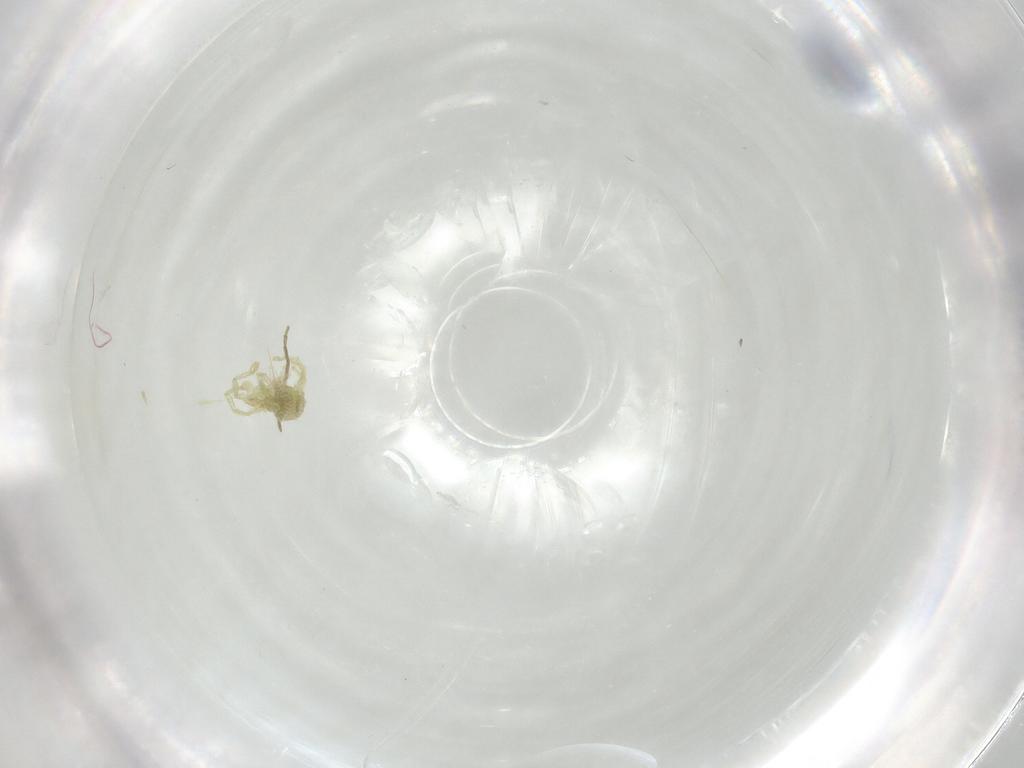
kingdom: Animalia
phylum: Arthropoda
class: Arachnida
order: Trombidiformes
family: Erythraeidae
